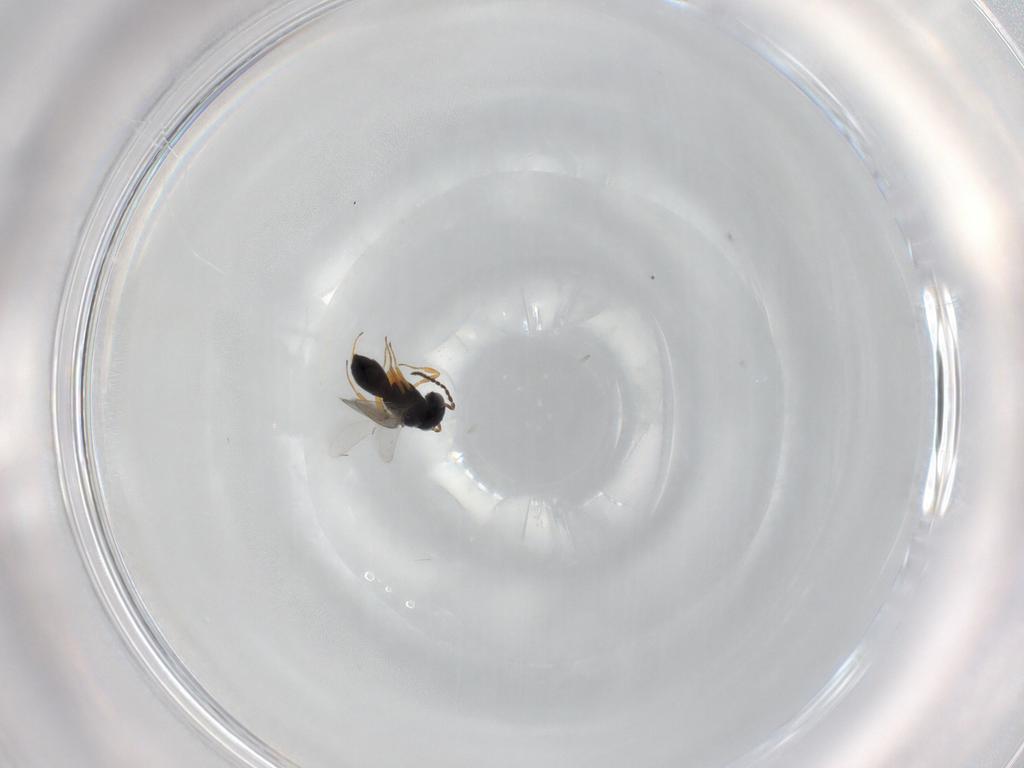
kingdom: Animalia
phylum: Arthropoda
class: Insecta
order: Hymenoptera
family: Scelionidae
